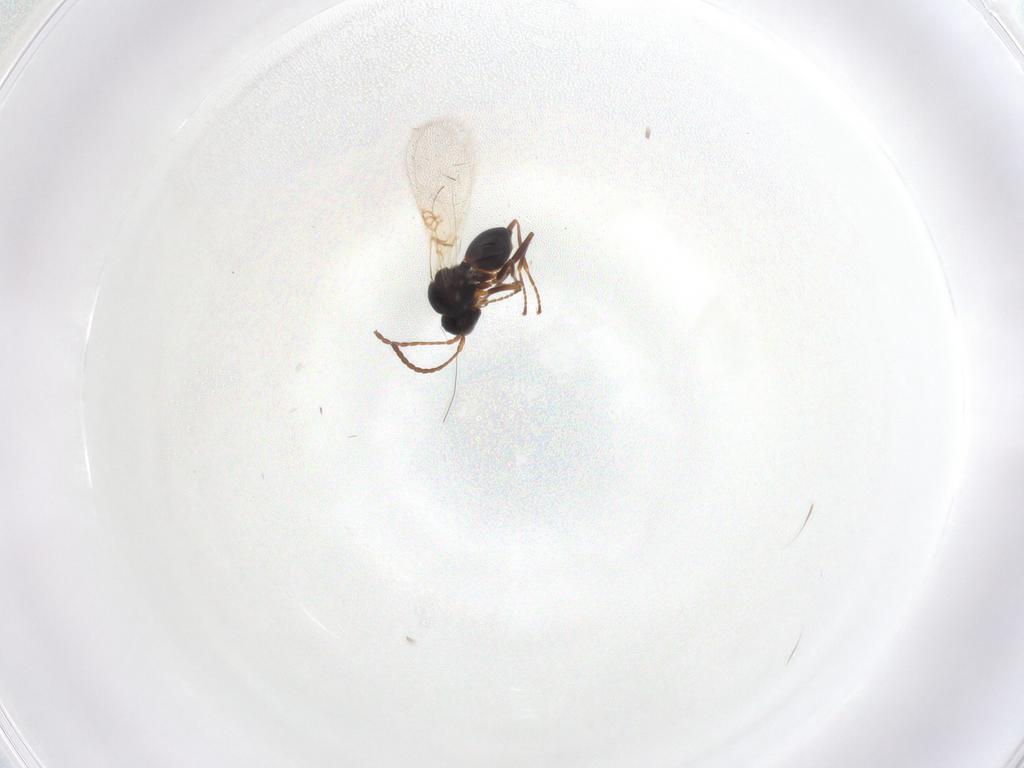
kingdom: Animalia
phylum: Arthropoda
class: Insecta
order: Hymenoptera
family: Figitidae
